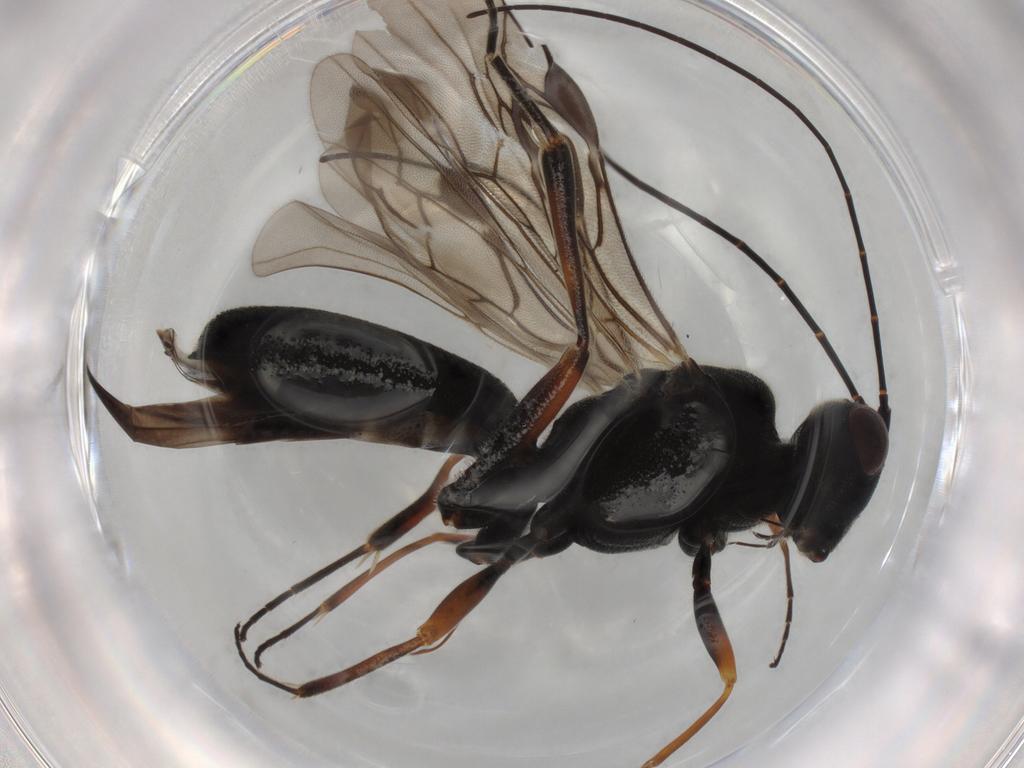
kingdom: Animalia
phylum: Arthropoda
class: Insecta
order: Hymenoptera
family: Braconidae
